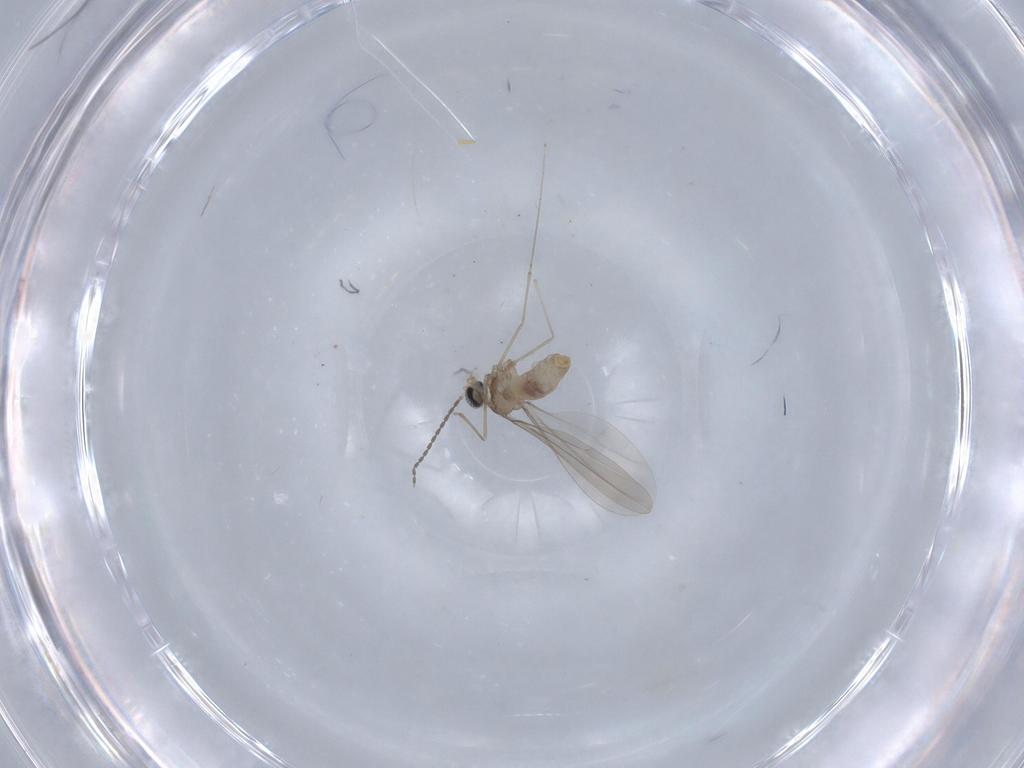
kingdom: Animalia
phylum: Arthropoda
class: Insecta
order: Diptera
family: Cecidomyiidae
